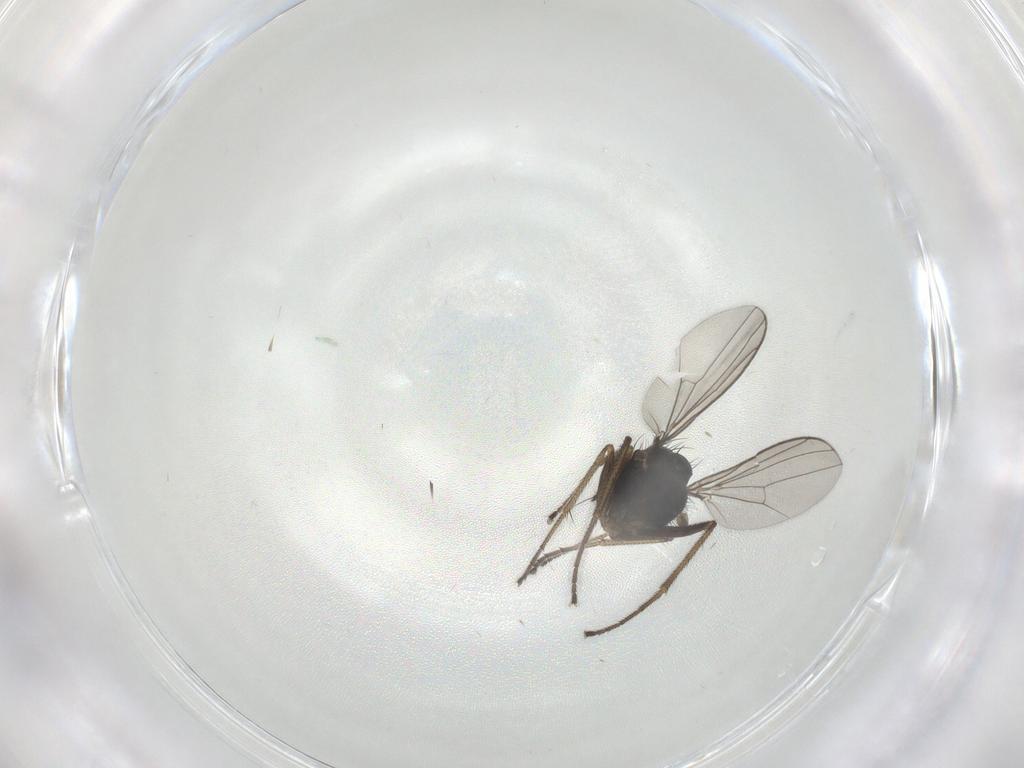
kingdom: Animalia
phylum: Arthropoda
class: Insecta
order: Diptera
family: Dolichopodidae
